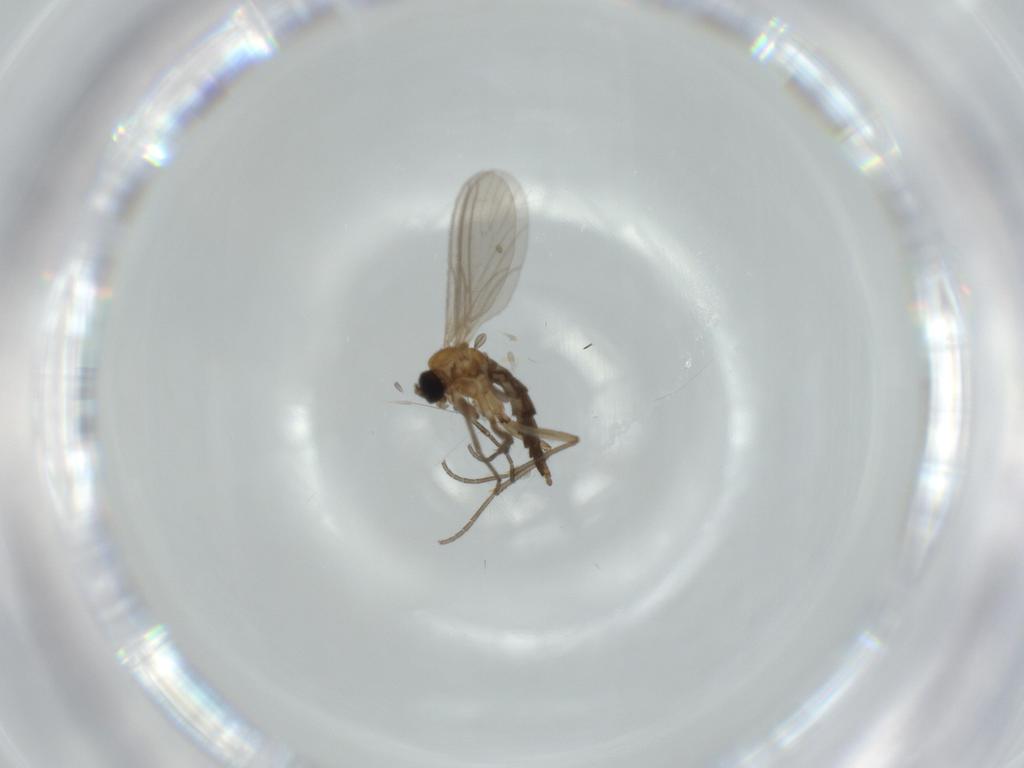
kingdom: Animalia
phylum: Arthropoda
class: Insecta
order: Diptera
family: Sciaridae
